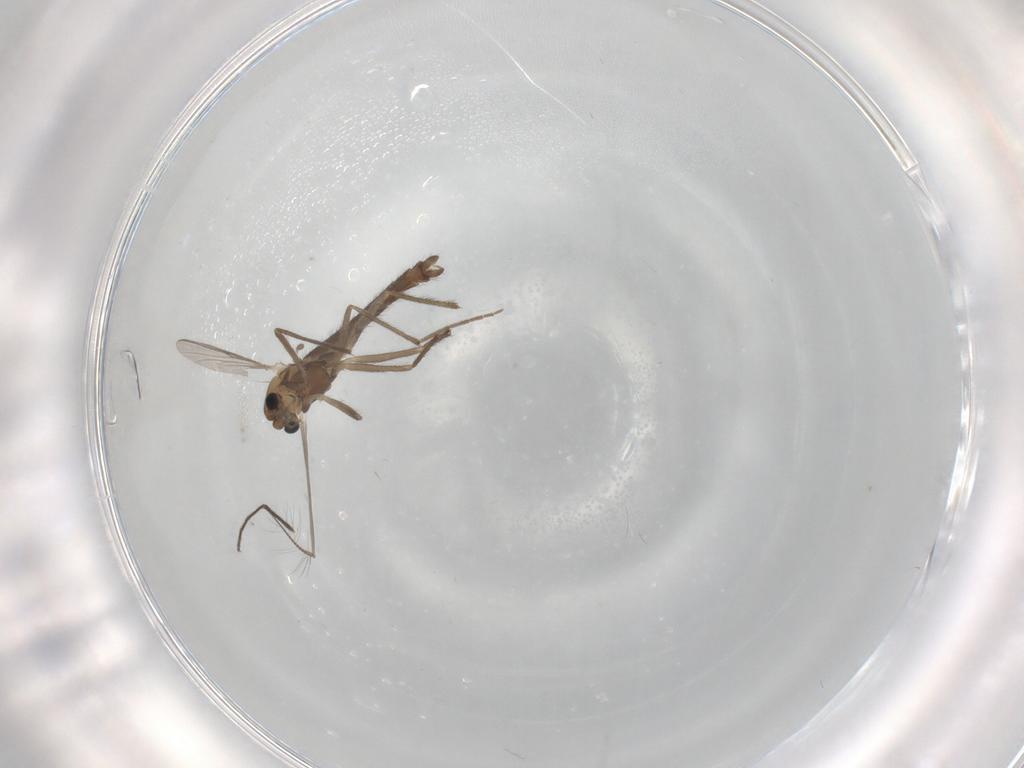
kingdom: Animalia
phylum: Arthropoda
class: Insecta
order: Diptera
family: Chironomidae
